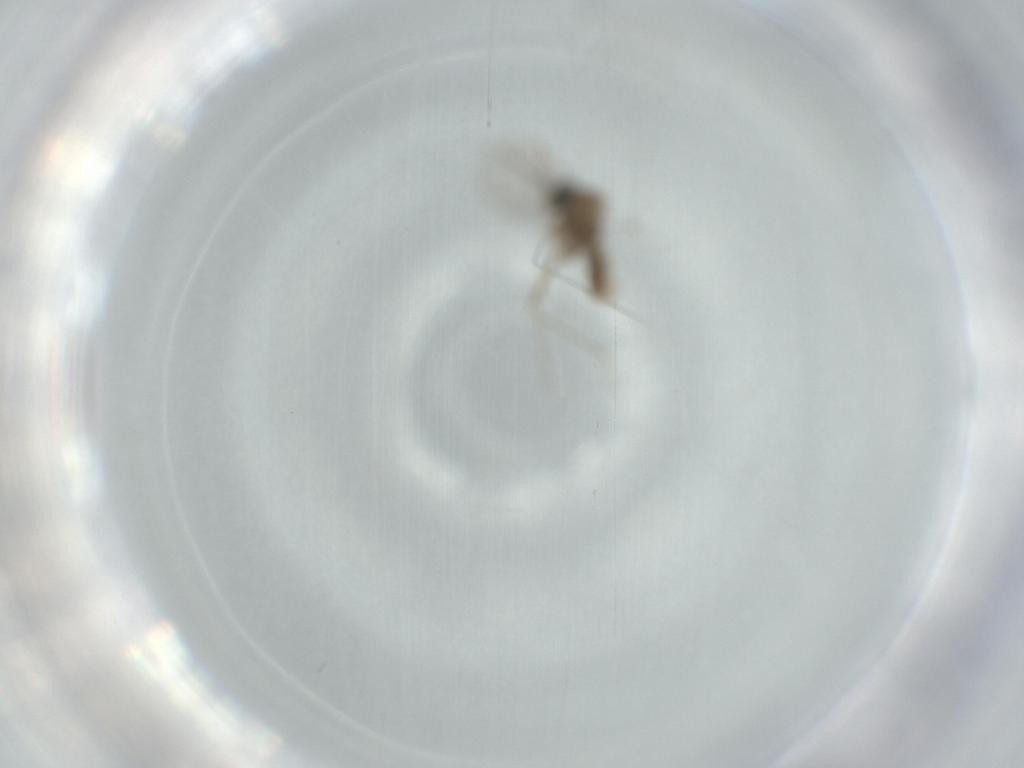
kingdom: Animalia
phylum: Arthropoda
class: Insecta
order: Diptera
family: Cecidomyiidae
